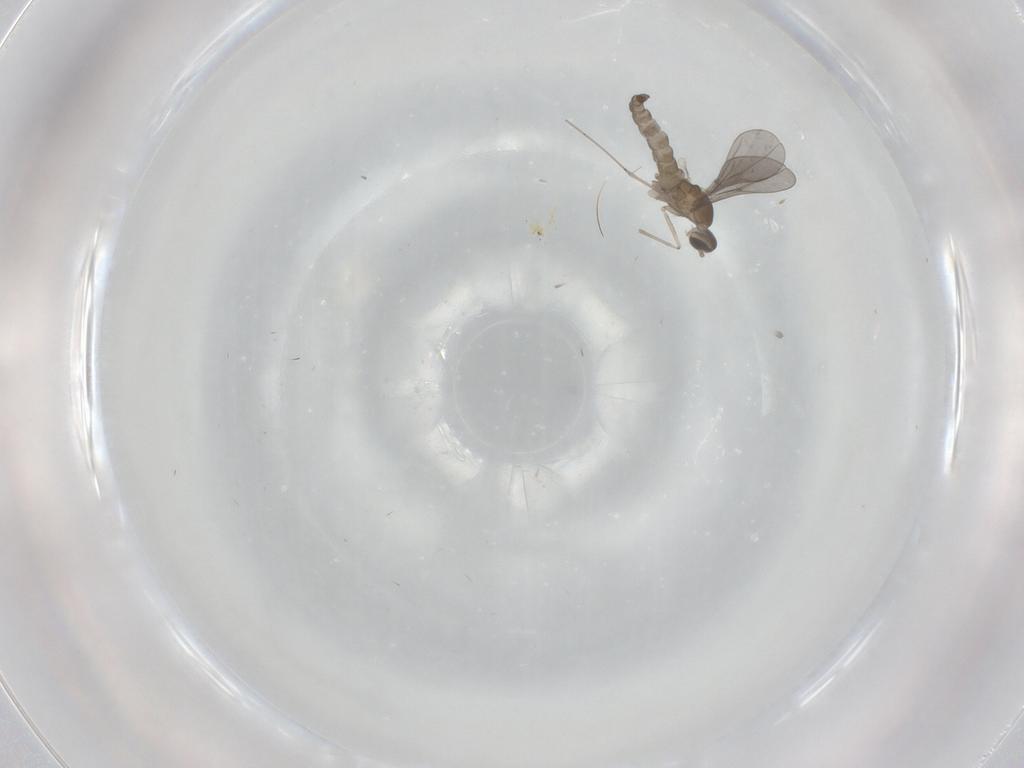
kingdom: Animalia
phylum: Arthropoda
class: Insecta
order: Diptera
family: Cecidomyiidae
